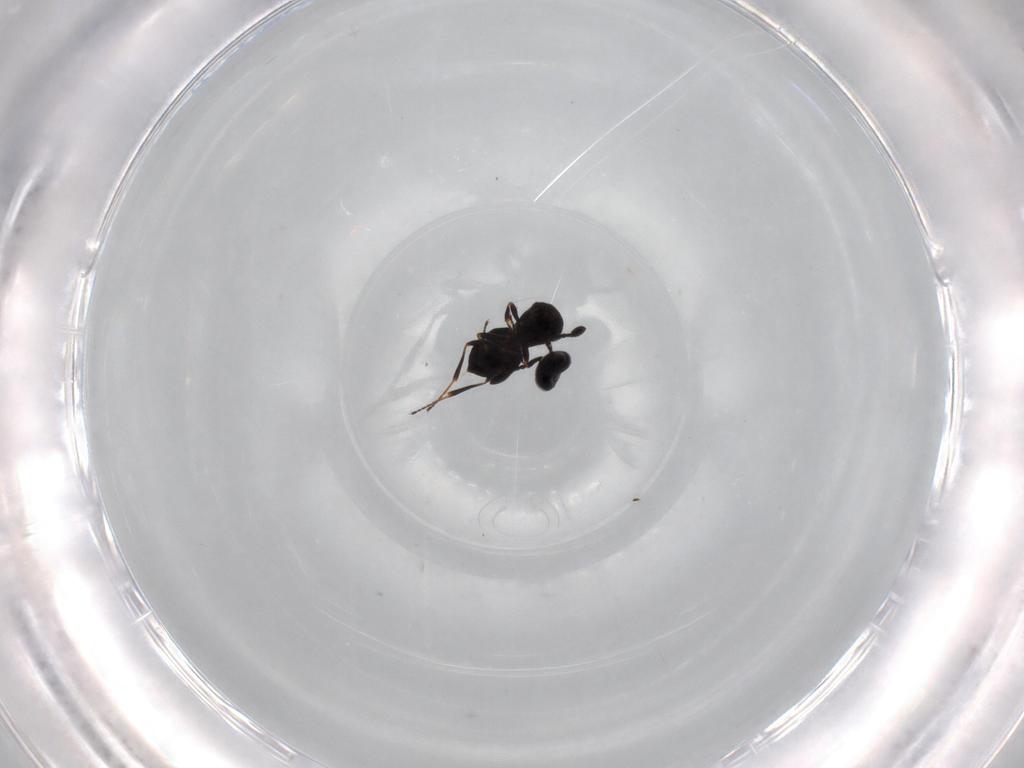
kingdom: Animalia
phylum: Arthropoda
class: Insecta
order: Hymenoptera
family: Scelionidae
